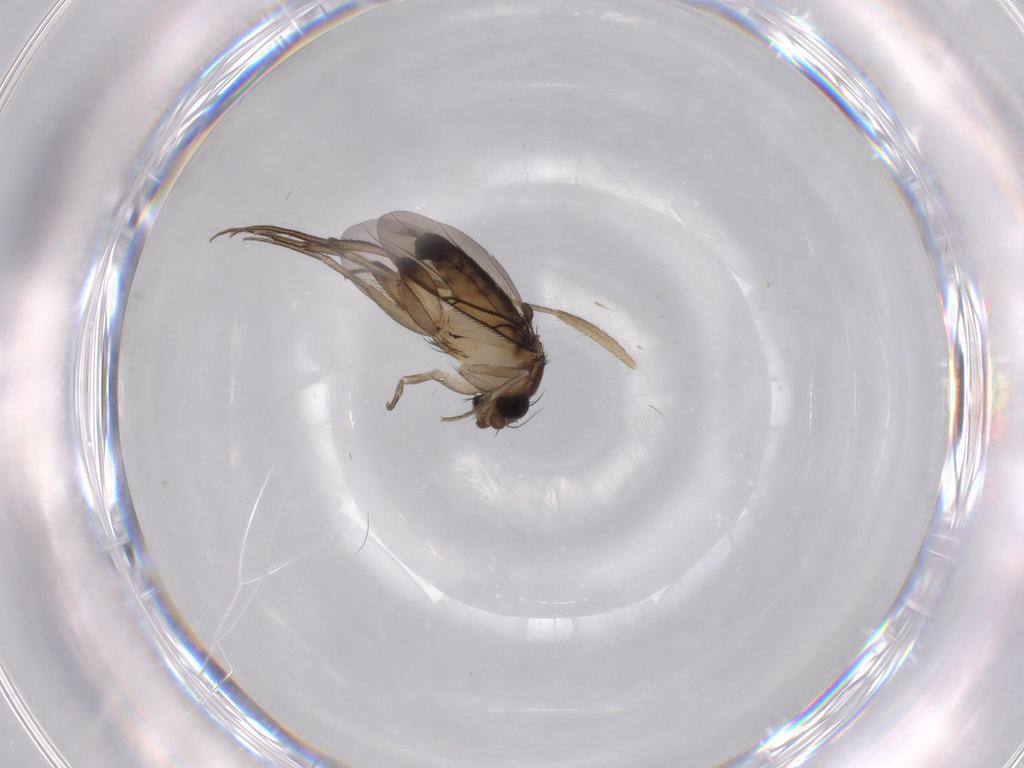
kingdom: Animalia
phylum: Arthropoda
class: Insecta
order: Diptera
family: Sciaridae
